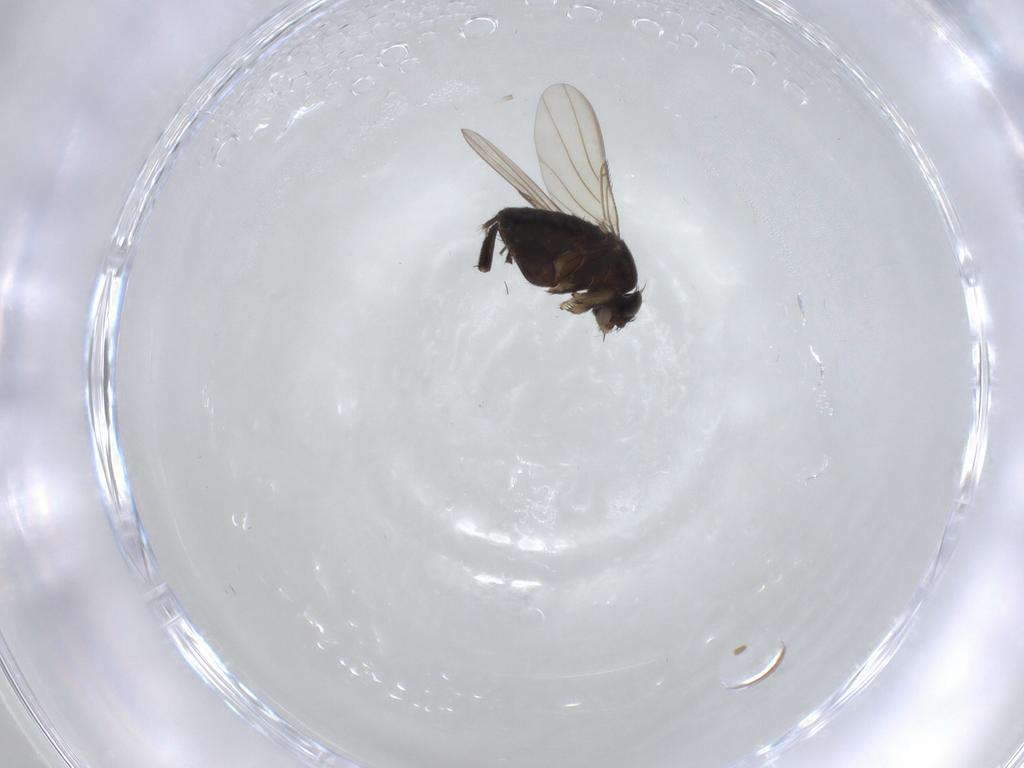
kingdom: Animalia
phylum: Arthropoda
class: Insecta
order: Diptera
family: Phoridae
